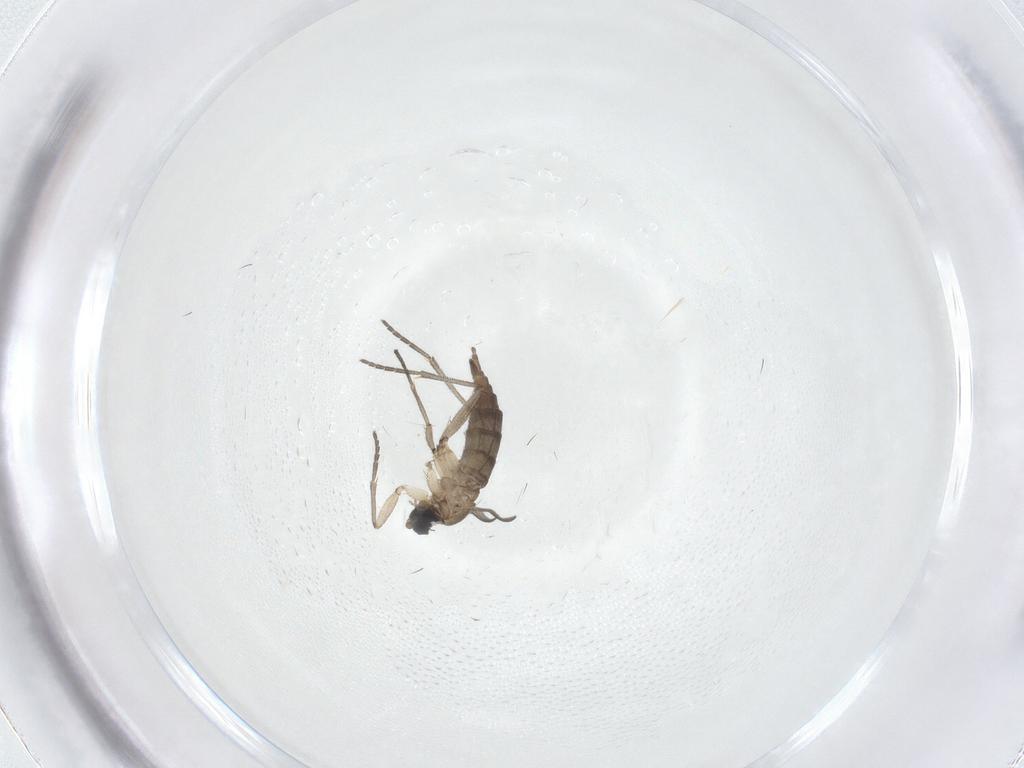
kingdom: Animalia
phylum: Arthropoda
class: Insecta
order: Diptera
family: Sciaridae
